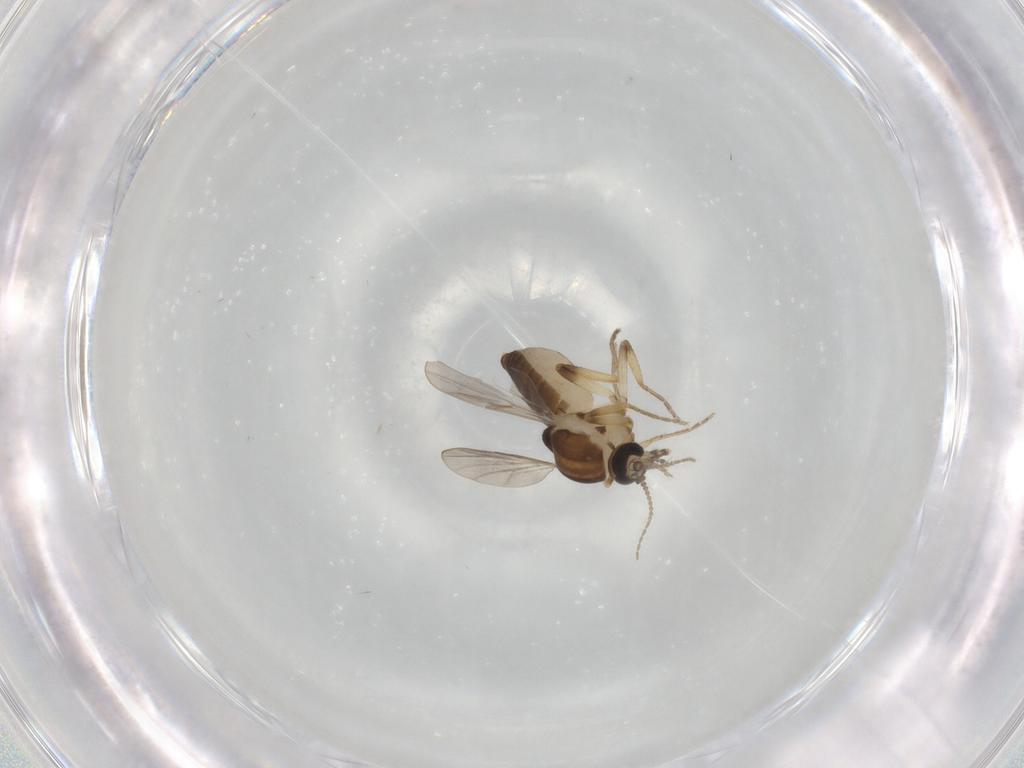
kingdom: Animalia
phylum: Arthropoda
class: Insecta
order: Diptera
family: Ceratopogonidae
